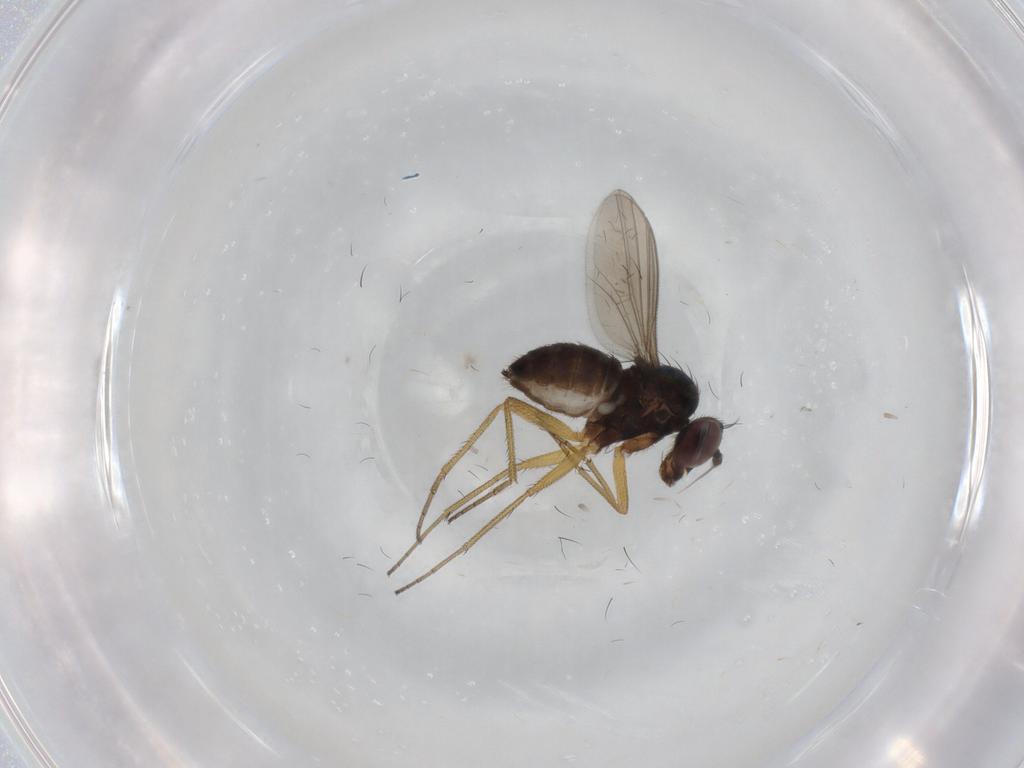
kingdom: Animalia
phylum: Arthropoda
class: Insecta
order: Diptera
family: Dolichopodidae
